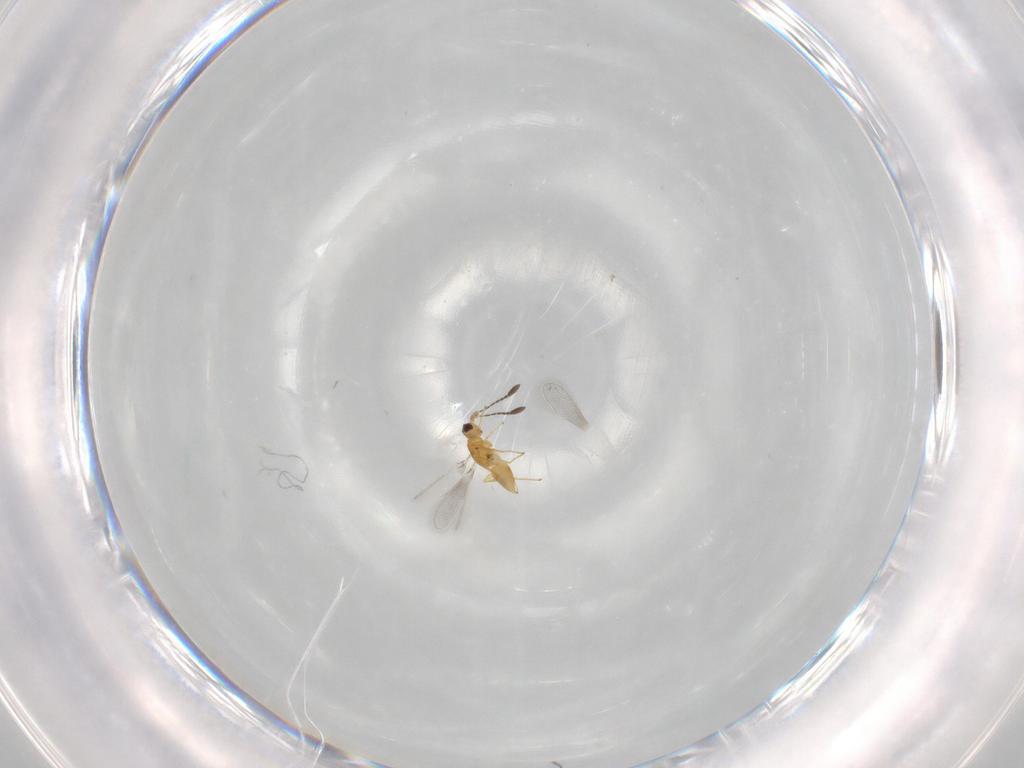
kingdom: Animalia
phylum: Arthropoda
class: Insecta
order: Hymenoptera
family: Mymaridae
